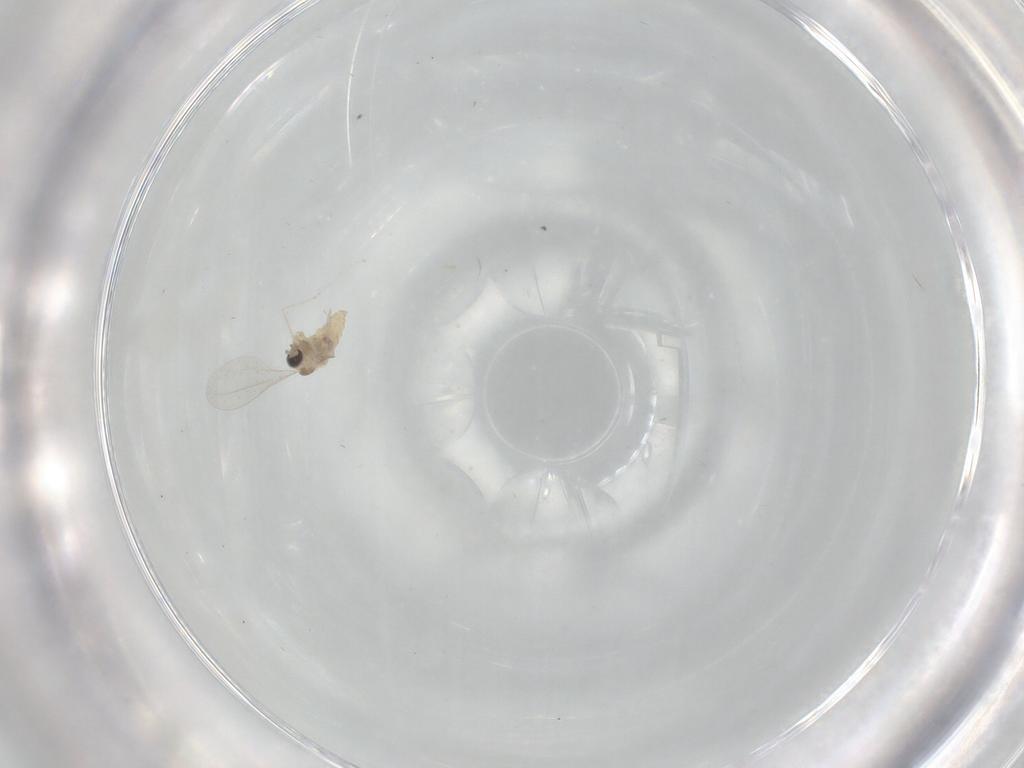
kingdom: Animalia
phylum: Arthropoda
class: Insecta
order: Diptera
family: Cecidomyiidae
